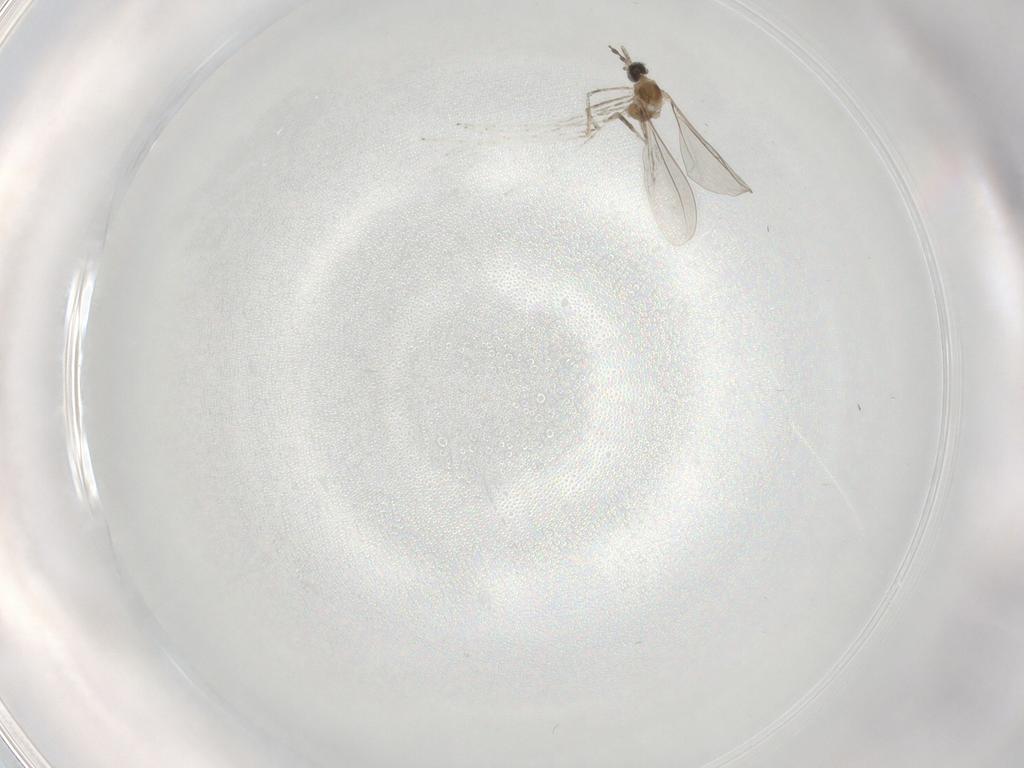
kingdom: Animalia
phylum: Arthropoda
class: Insecta
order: Diptera
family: Cecidomyiidae
